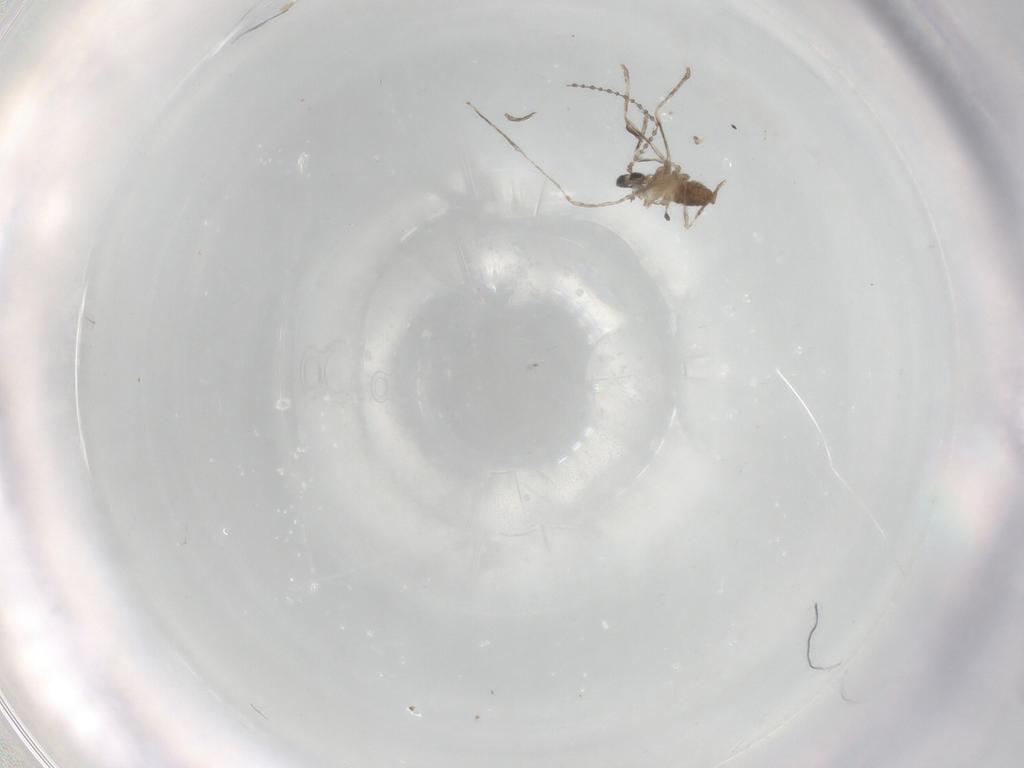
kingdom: Animalia
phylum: Arthropoda
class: Insecta
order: Diptera
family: Cecidomyiidae
